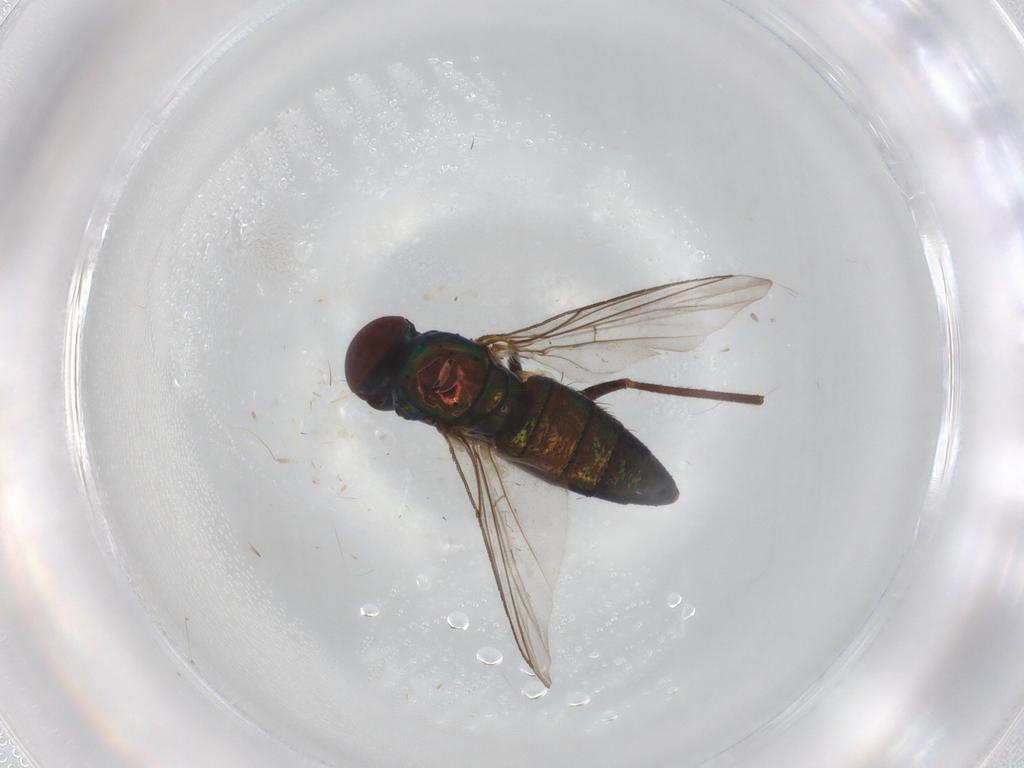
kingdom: Animalia
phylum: Arthropoda
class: Insecta
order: Diptera
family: Dolichopodidae
